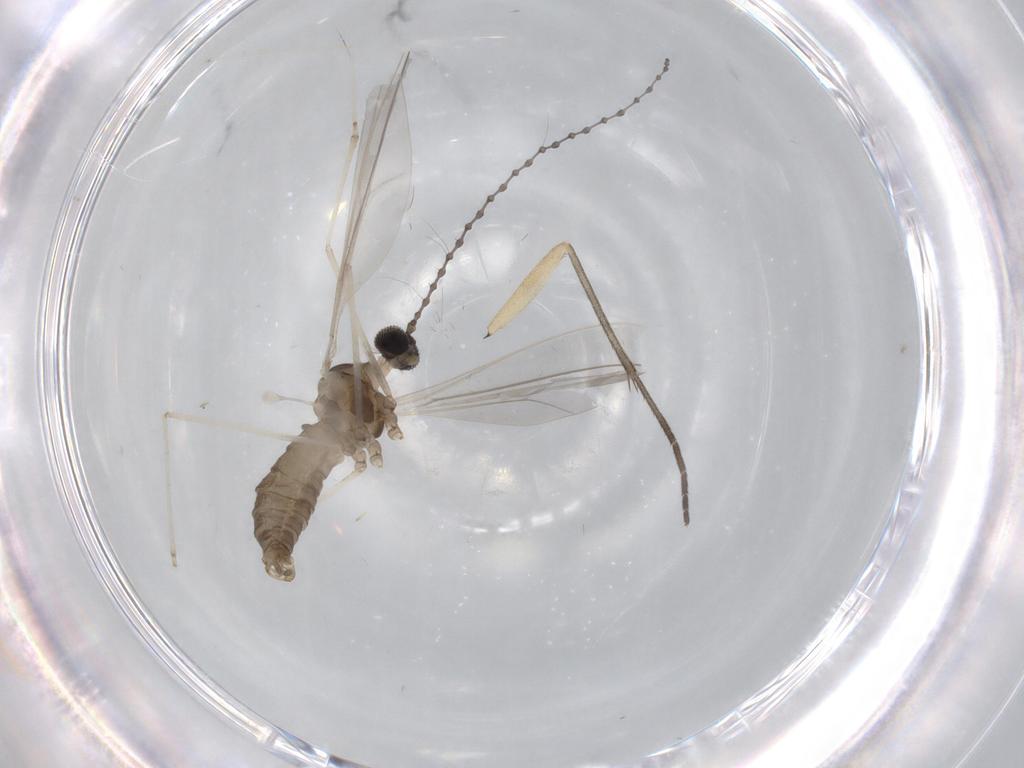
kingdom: Animalia
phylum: Arthropoda
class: Insecta
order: Diptera
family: Cecidomyiidae
